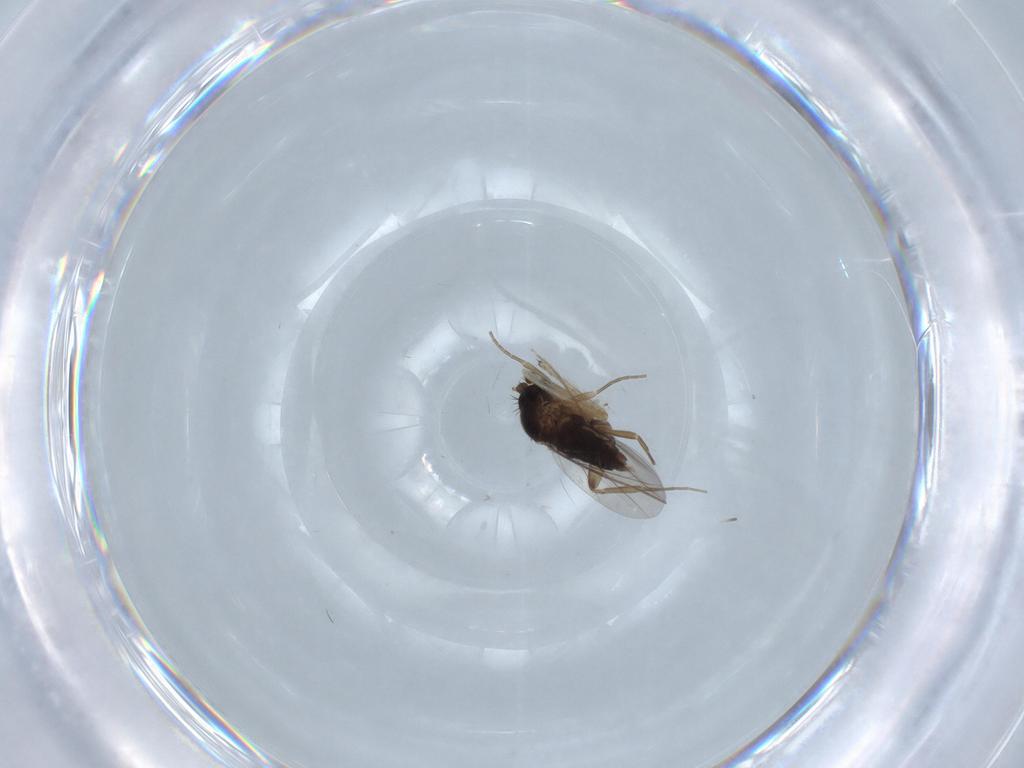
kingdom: Animalia
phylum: Arthropoda
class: Insecta
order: Diptera
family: Phoridae
